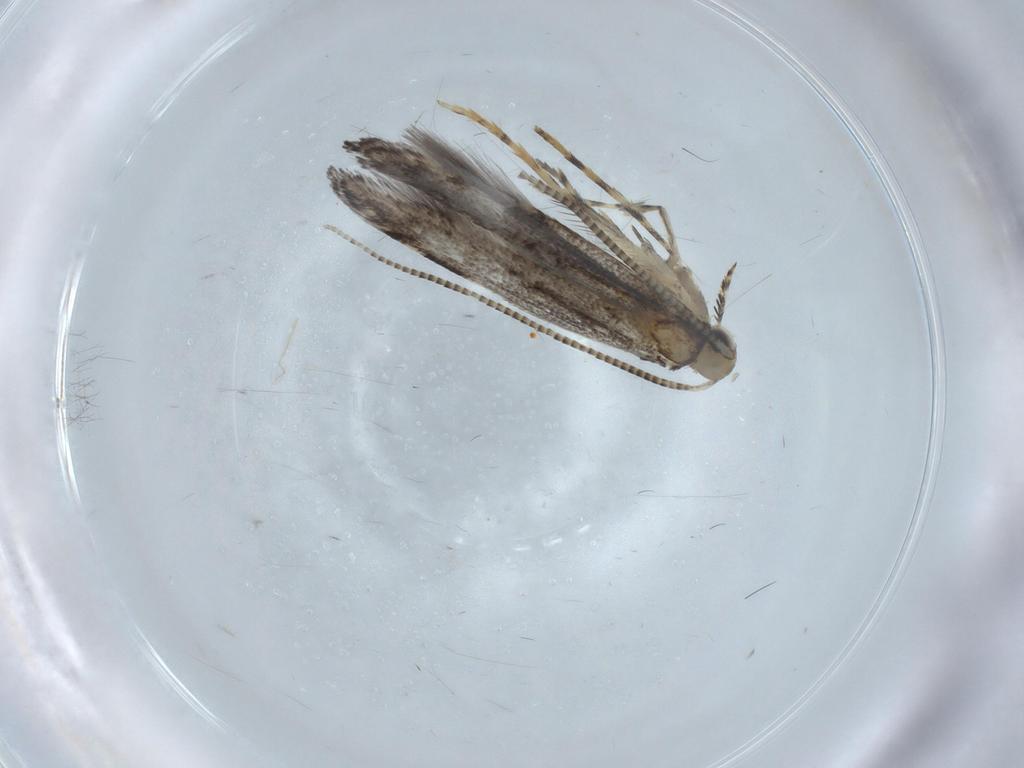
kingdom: Animalia
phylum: Arthropoda
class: Insecta
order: Lepidoptera
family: Gracillariidae
